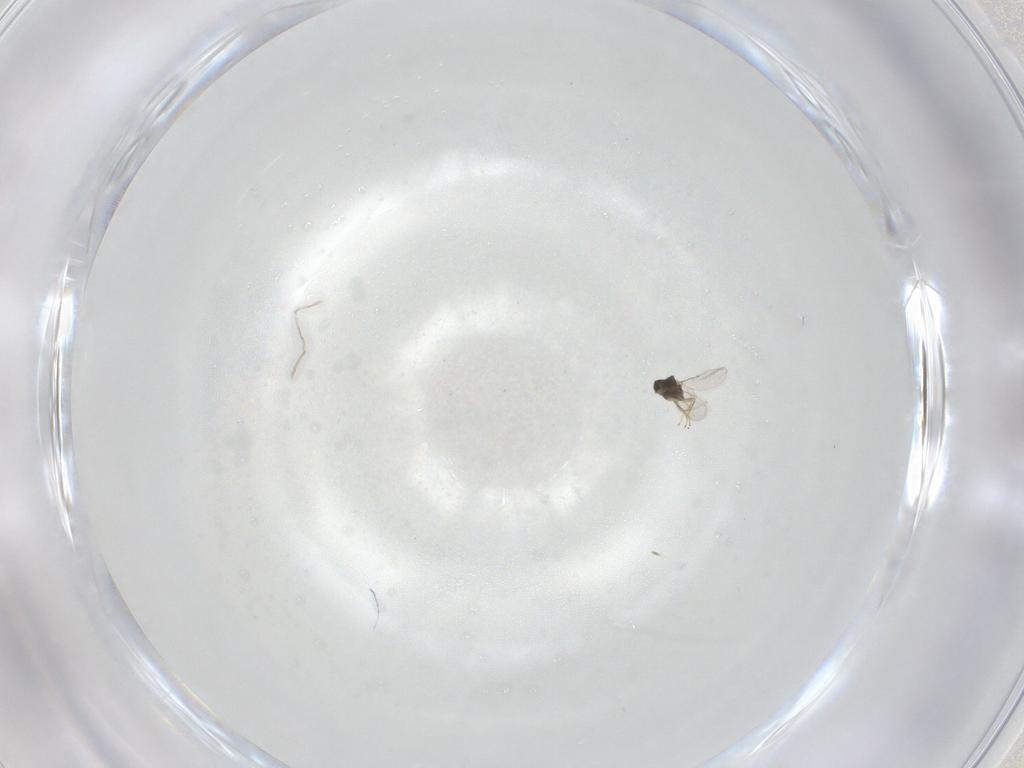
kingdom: Animalia
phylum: Arthropoda
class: Insecta
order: Hymenoptera
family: Encyrtidae
